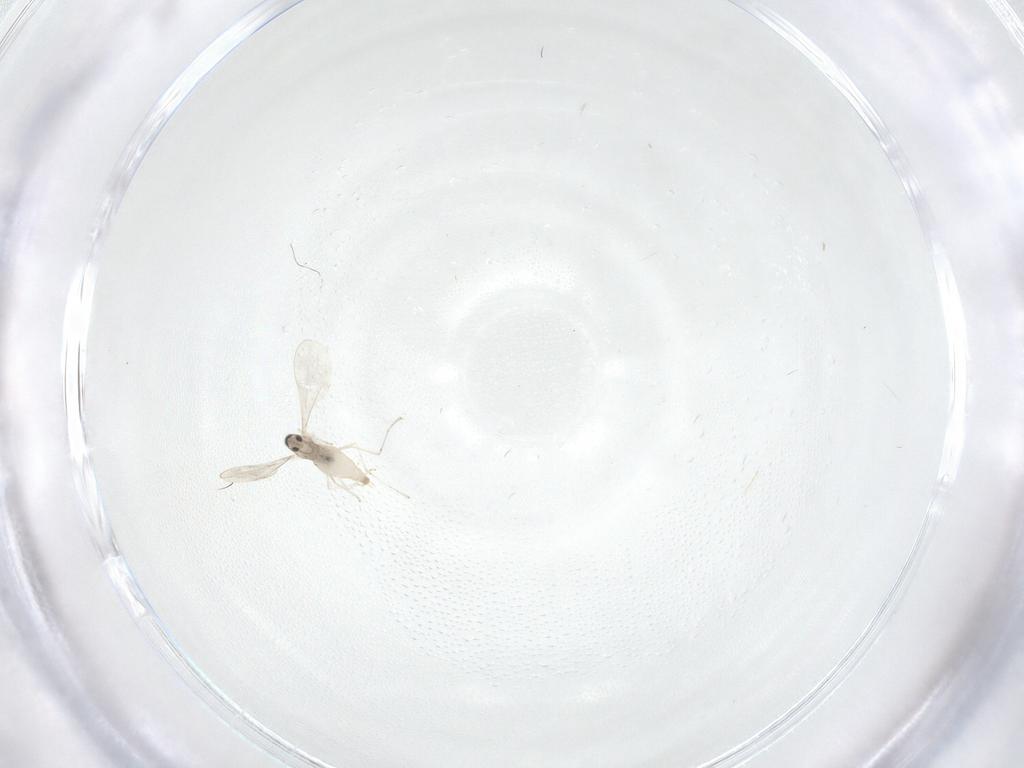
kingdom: Animalia
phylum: Arthropoda
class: Insecta
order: Diptera
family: Chironomidae
